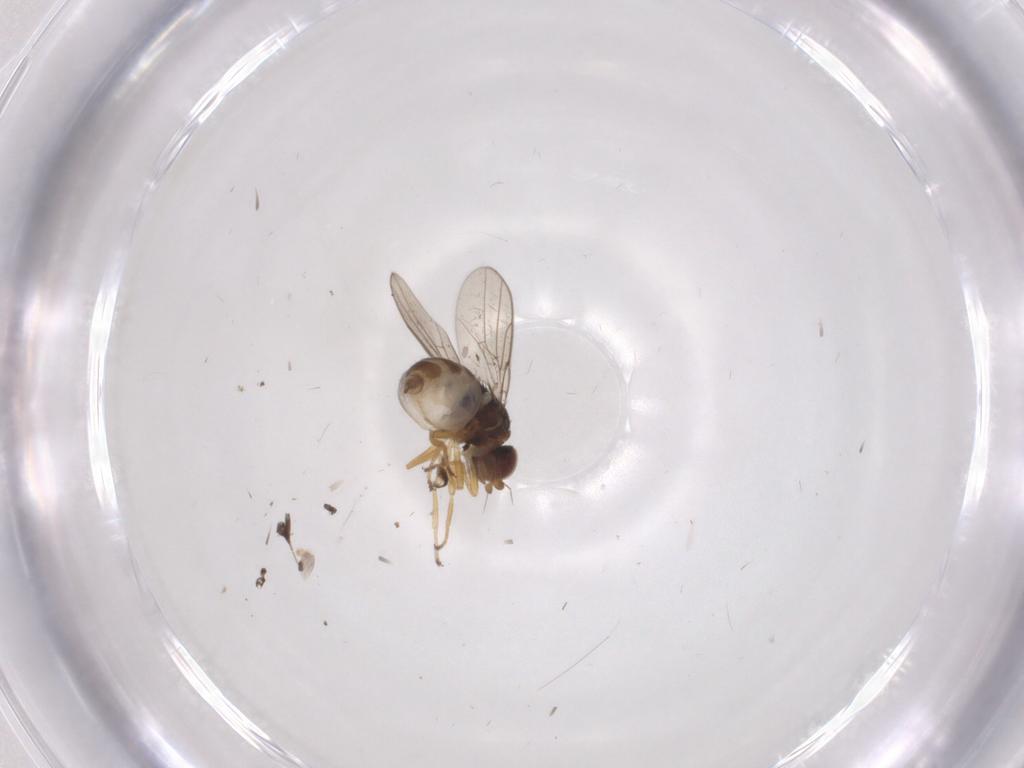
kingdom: Animalia
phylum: Arthropoda
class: Insecta
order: Diptera
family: Chloropidae
